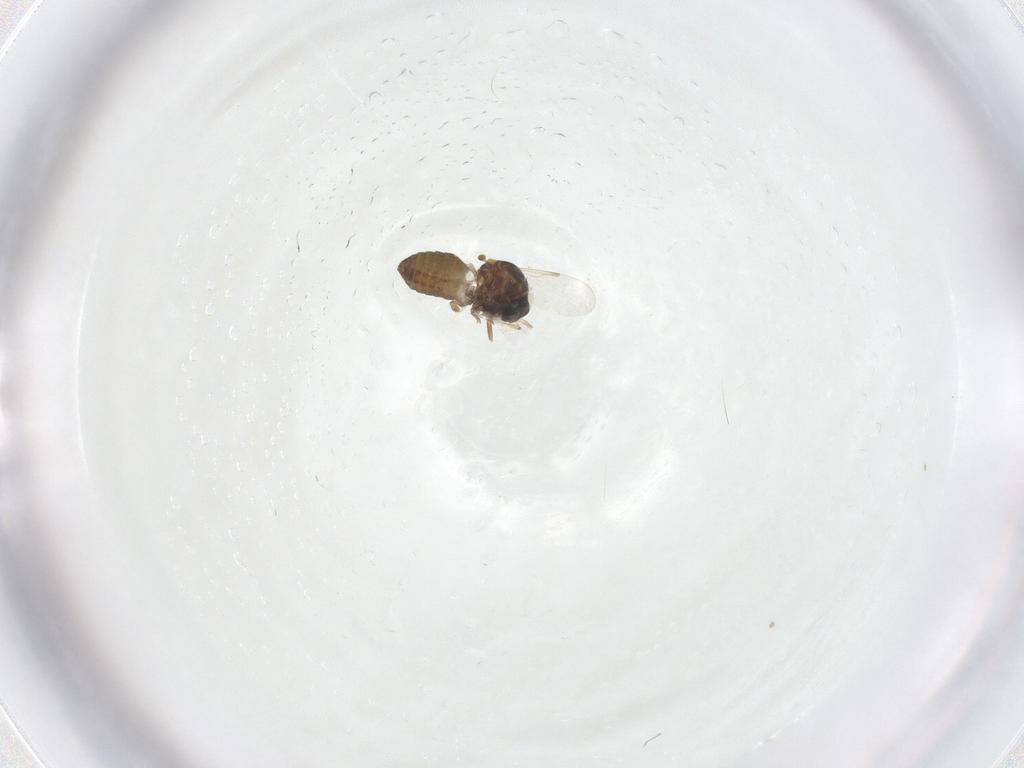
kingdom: Animalia
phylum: Arthropoda
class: Insecta
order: Diptera
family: Ceratopogonidae
